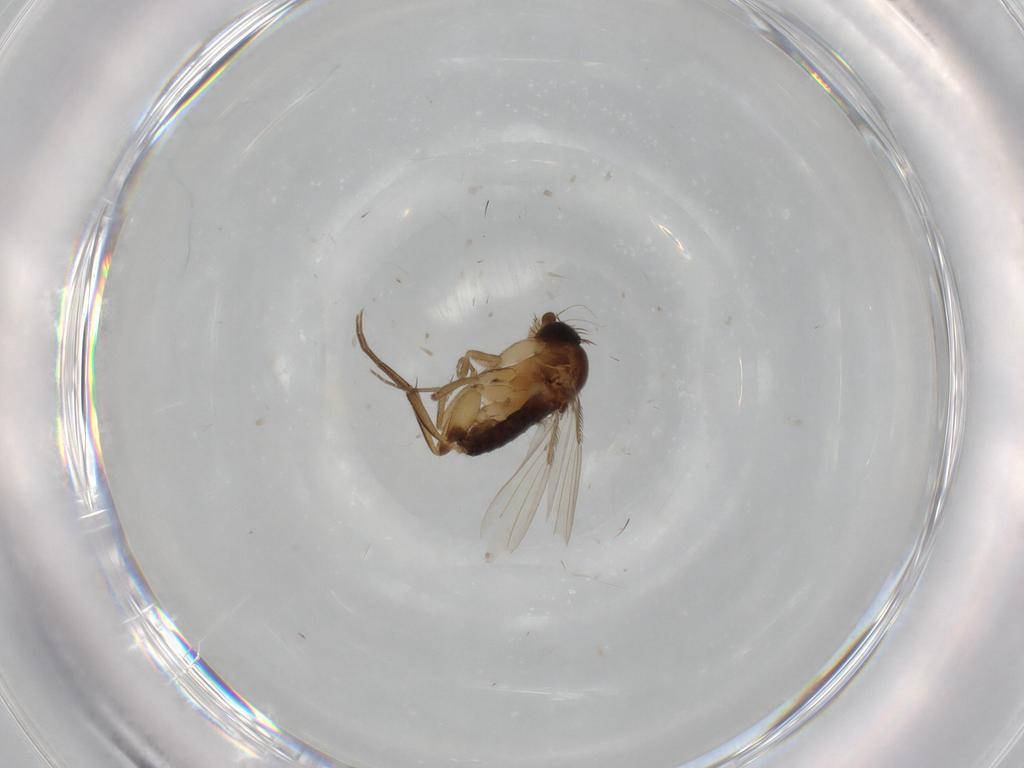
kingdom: Animalia
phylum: Arthropoda
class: Insecta
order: Diptera
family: Phoridae
